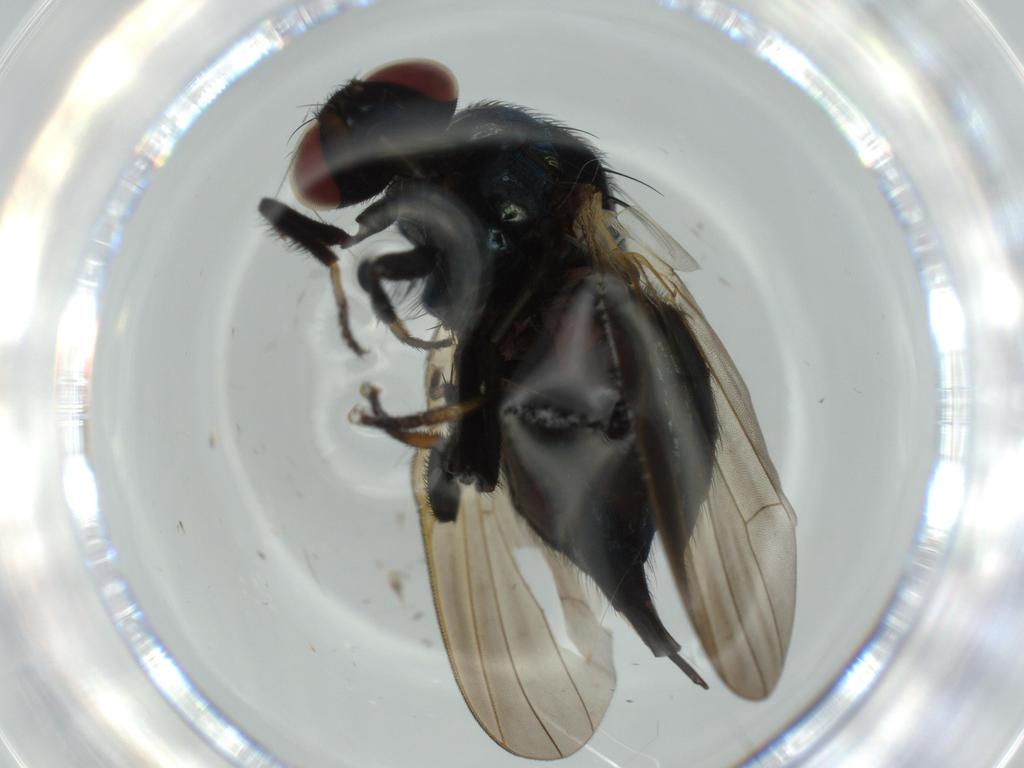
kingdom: Animalia
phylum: Arthropoda
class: Insecta
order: Diptera
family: Lonchaeidae
